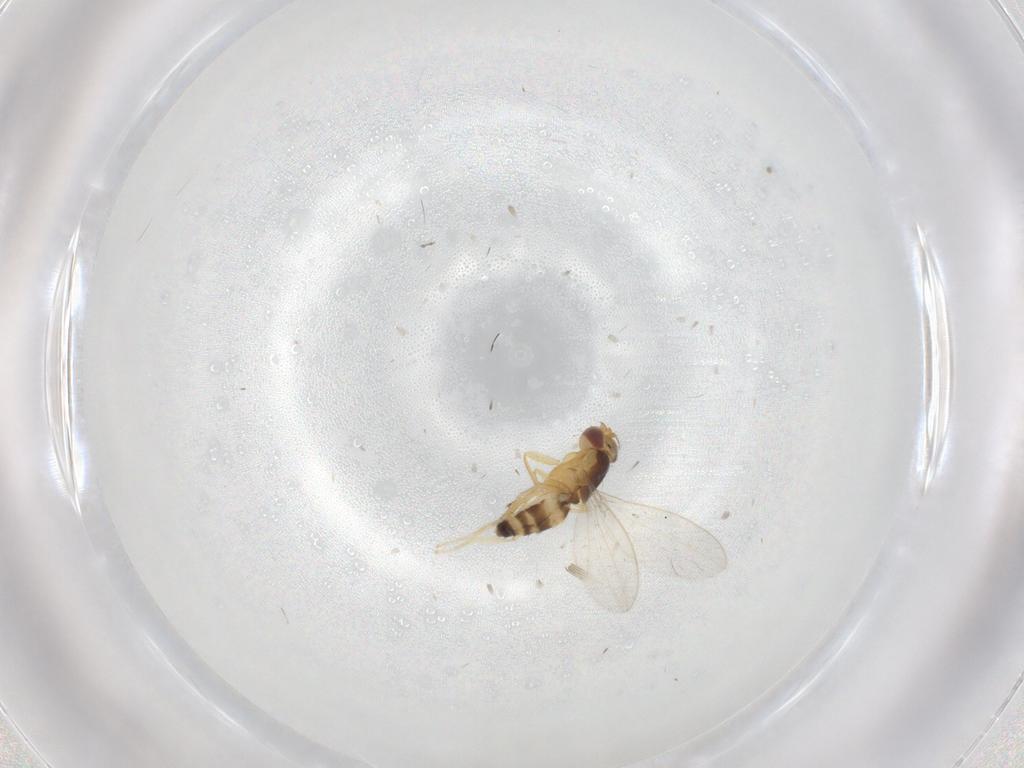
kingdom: Animalia
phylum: Arthropoda
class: Insecta
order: Diptera
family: Periscelididae
